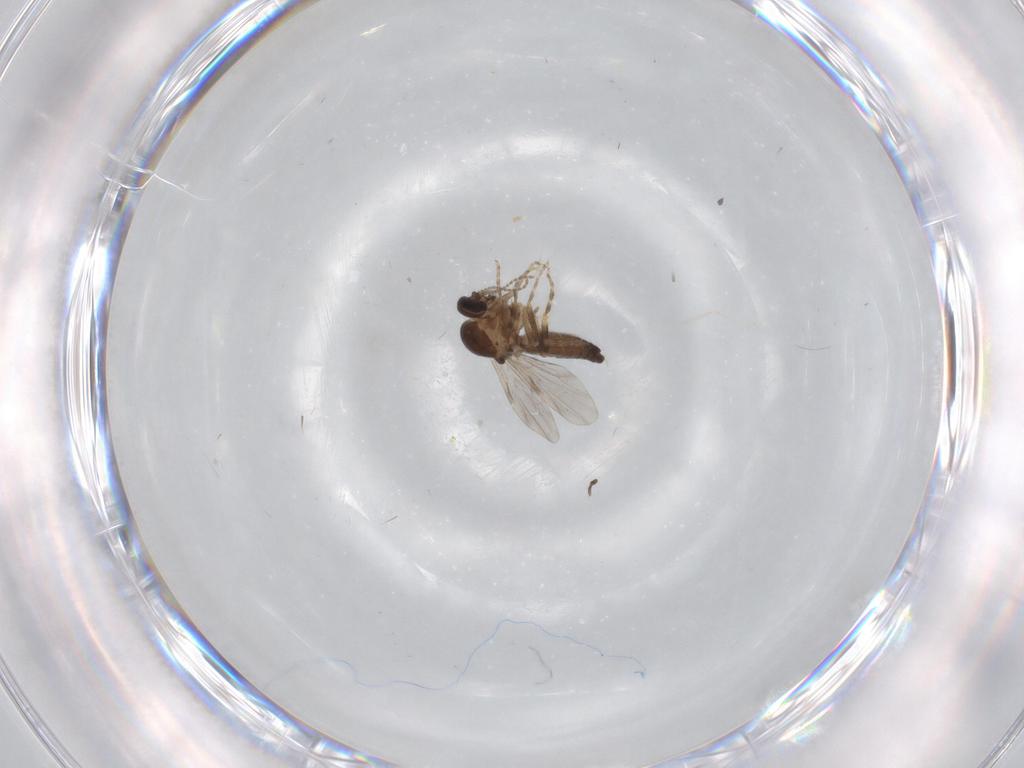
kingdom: Animalia
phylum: Arthropoda
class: Insecta
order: Diptera
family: Ceratopogonidae
